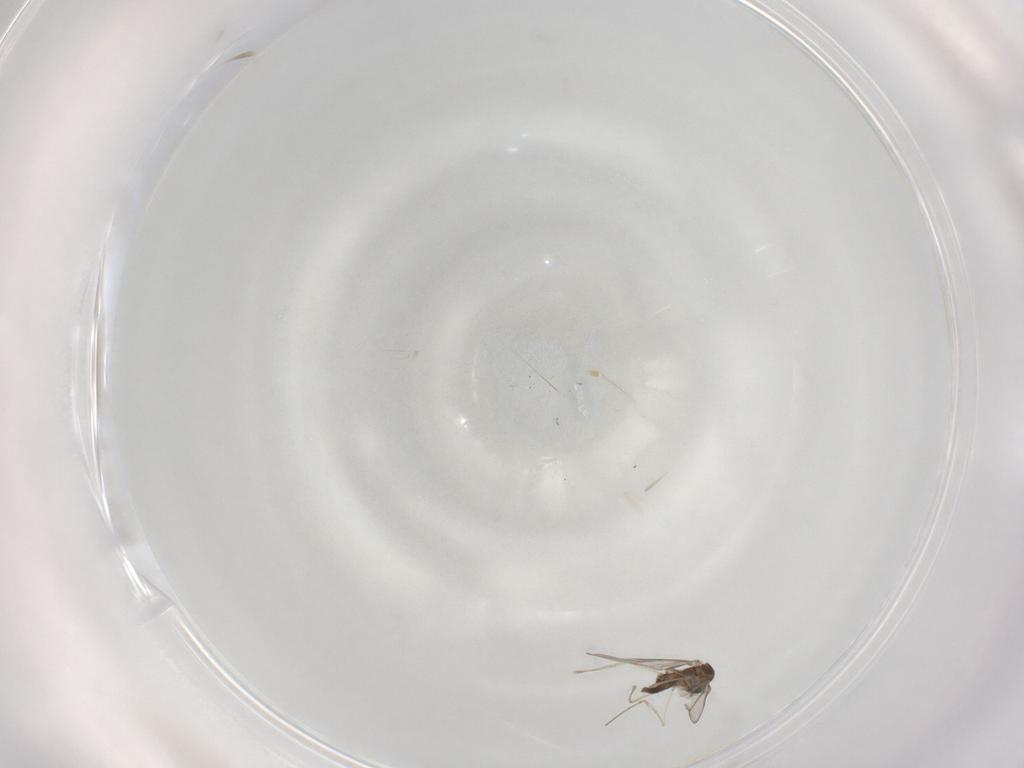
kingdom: Animalia
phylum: Arthropoda
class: Insecta
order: Diptera
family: Cecidomyiidae
